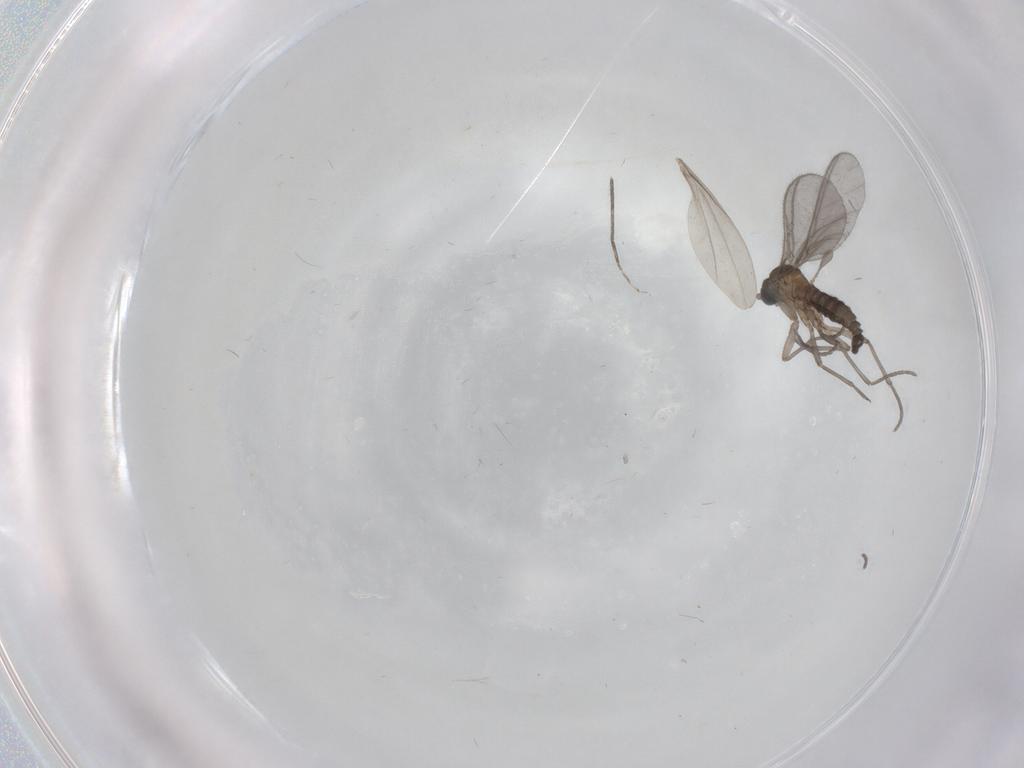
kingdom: Animalia
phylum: Arthropoda
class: Insecta
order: Diptera
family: Sciaridae
